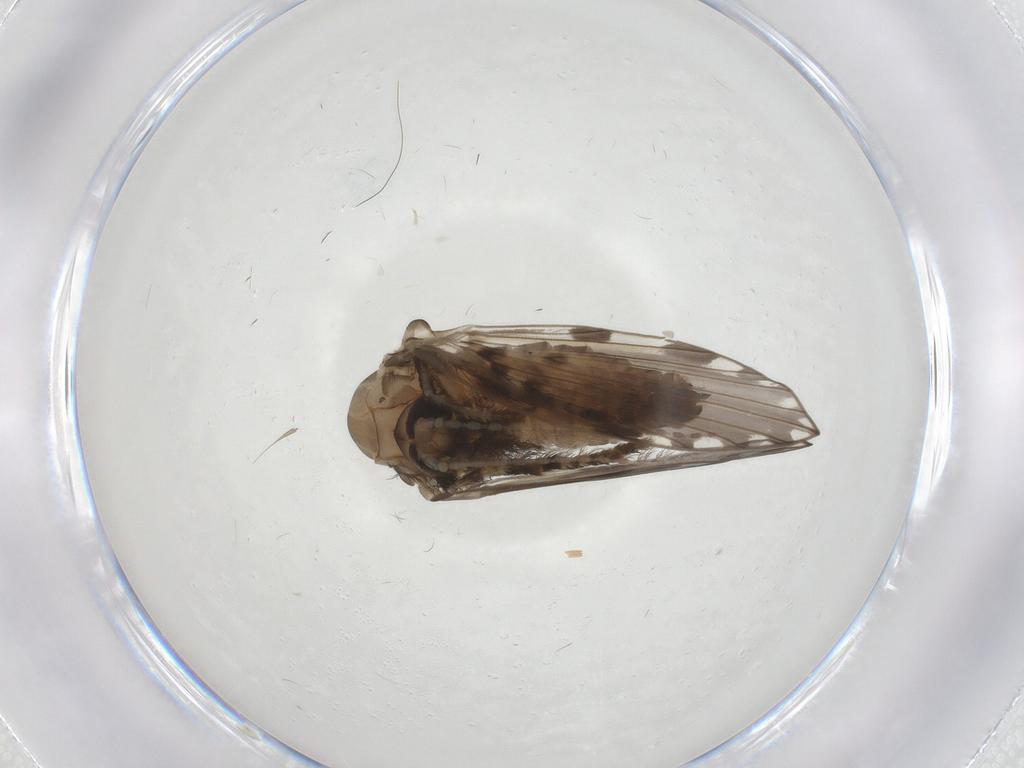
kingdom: Animalia
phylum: Arthropoda
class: Insecta
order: Diptera
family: Psychodidae
